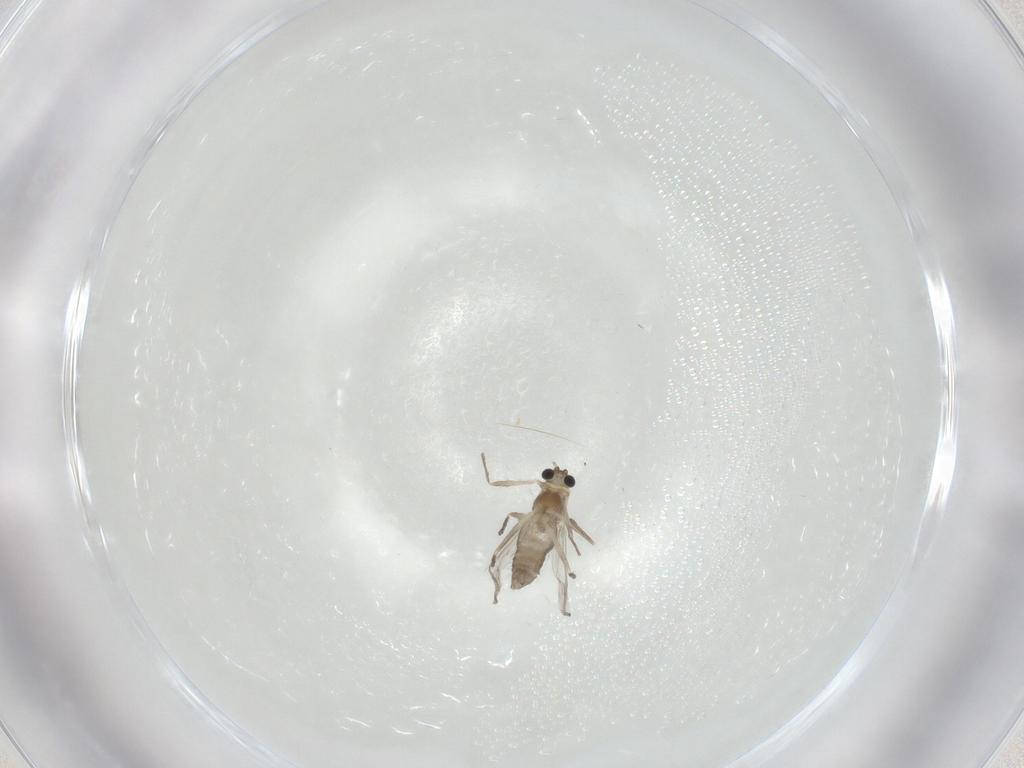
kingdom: Animalia
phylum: Arthropoda
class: Insecta
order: Diptera
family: Chironomidae
